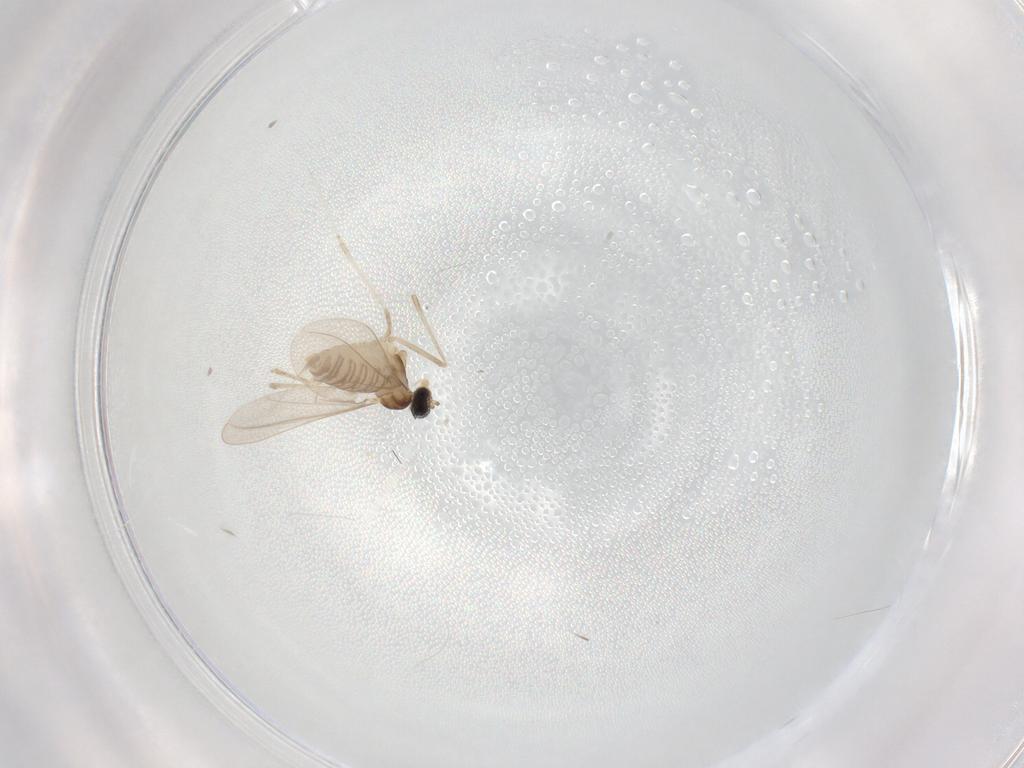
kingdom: Animalia
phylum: Arthropoda
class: Insecta
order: Diptera
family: Cecidomyiidae
